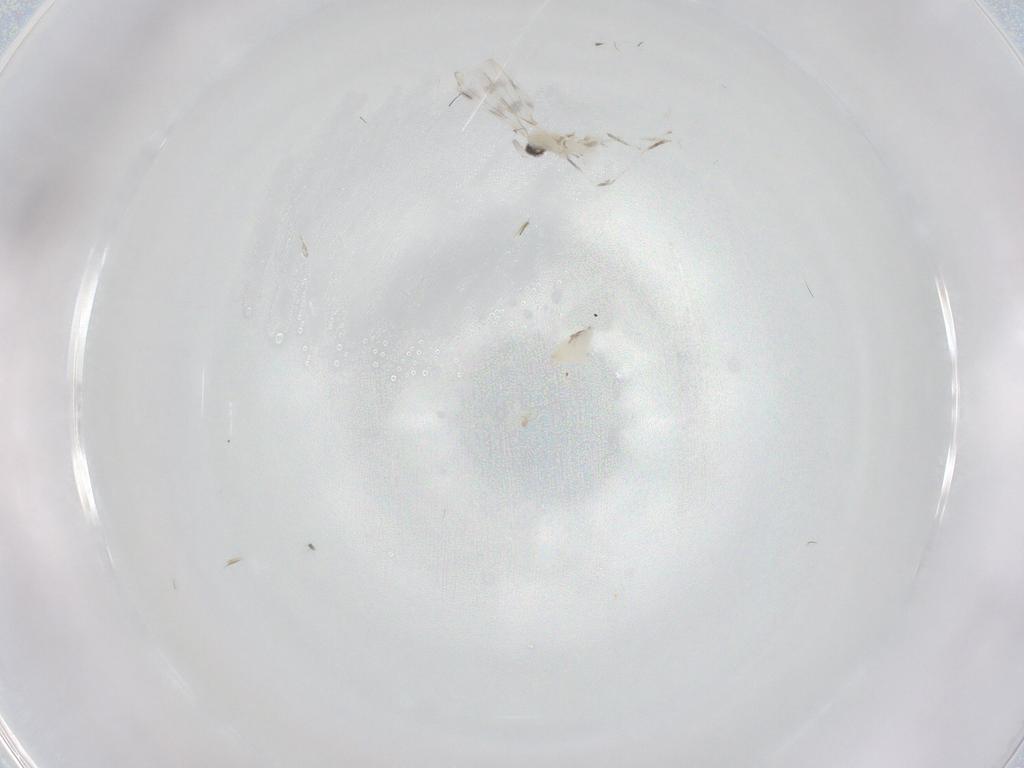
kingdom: Animalia
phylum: Arthropoda
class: Insecta
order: Diptera
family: Cecidomyiidae
